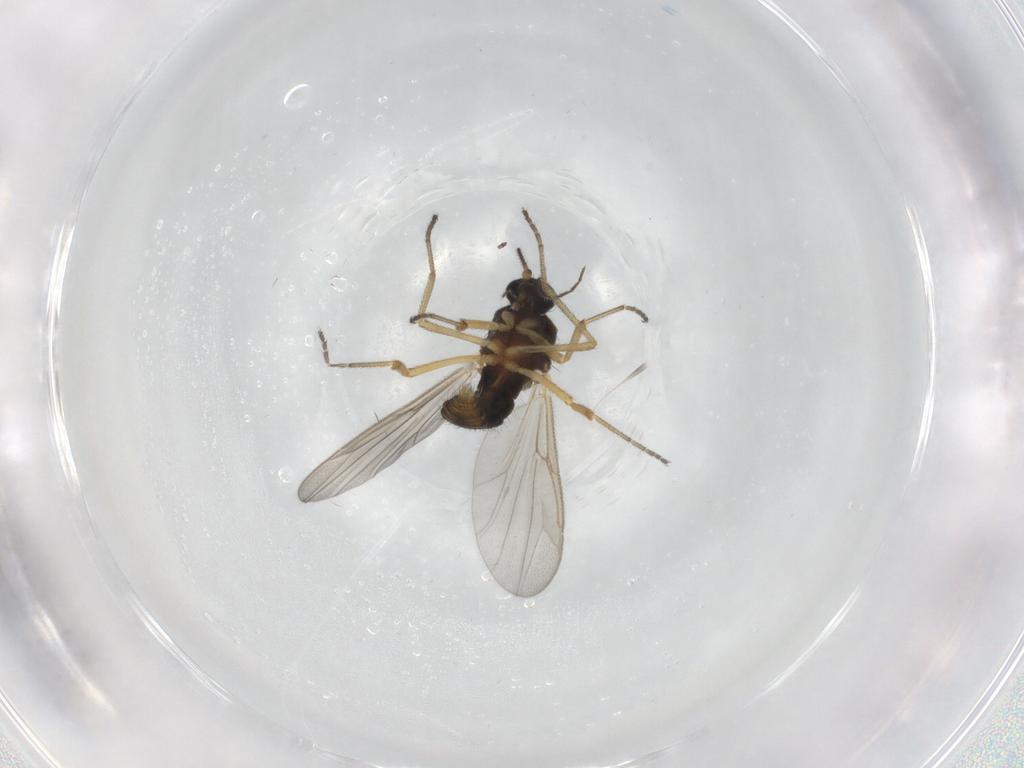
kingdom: Animalia
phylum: Arthropoda
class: Insecta
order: Diptera
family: Ceratopogonidae
